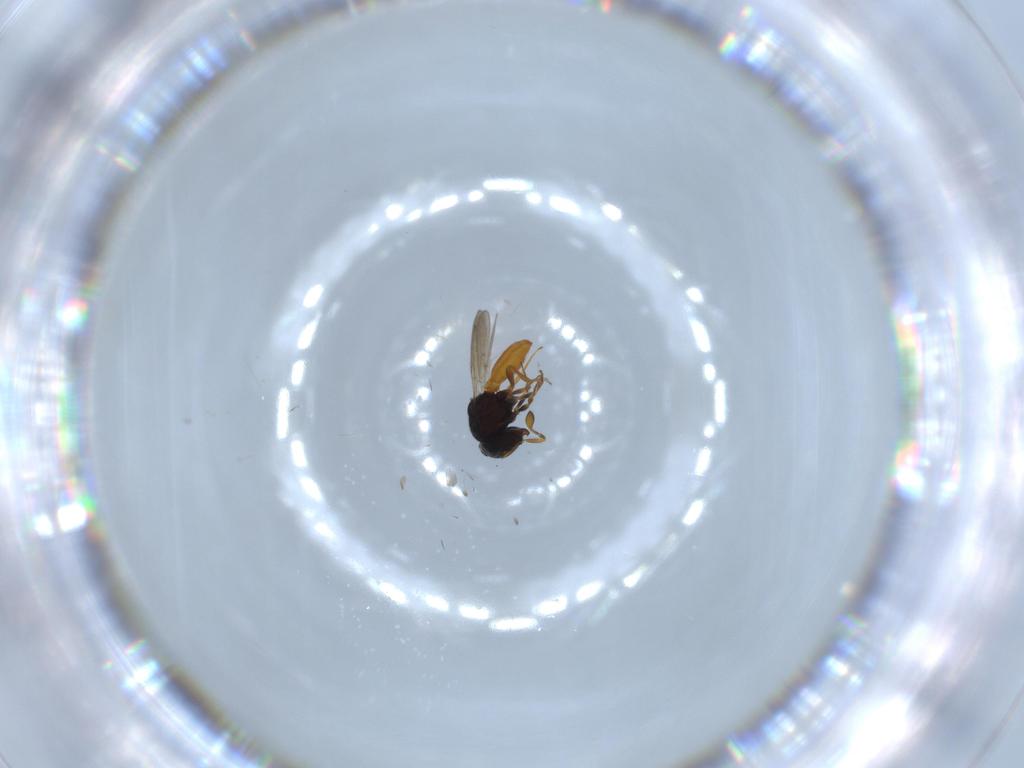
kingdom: Animalia
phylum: Arthropoda
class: Insecta
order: Hymenoptera
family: Scelionidae
